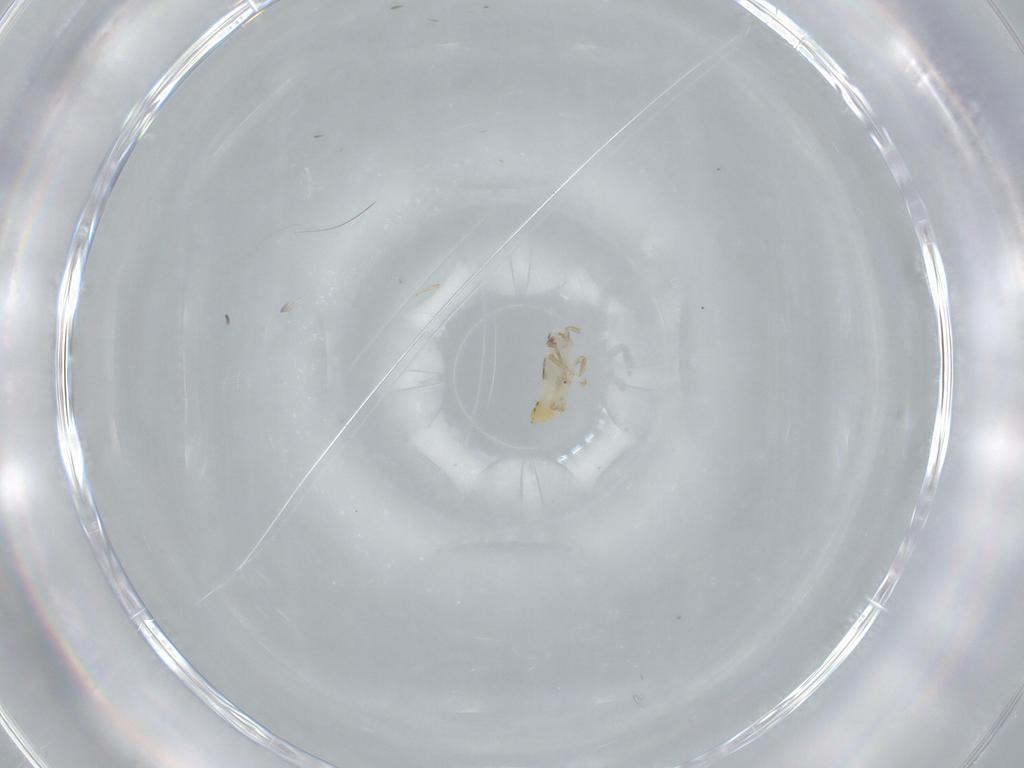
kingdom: Animalia
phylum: Arthropoda
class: Insecta
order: Hemiptera
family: Delphacidae
